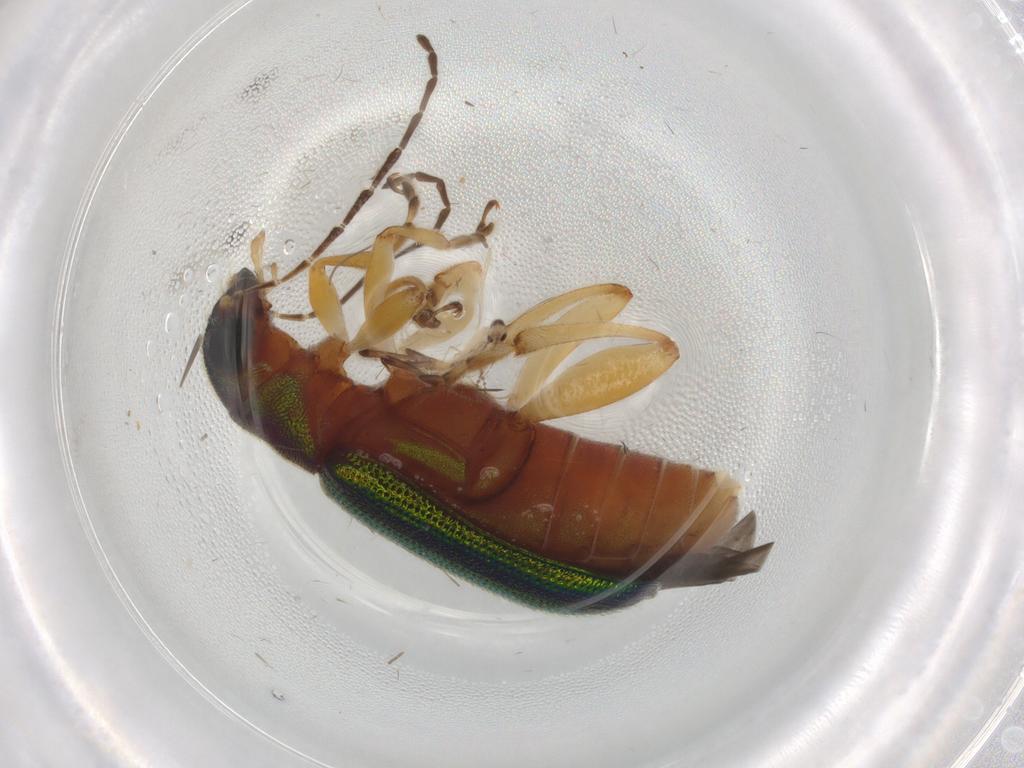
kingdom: Animalia
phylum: Arthropoda
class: Insecta
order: Coleoptera
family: Chrysomelidae
